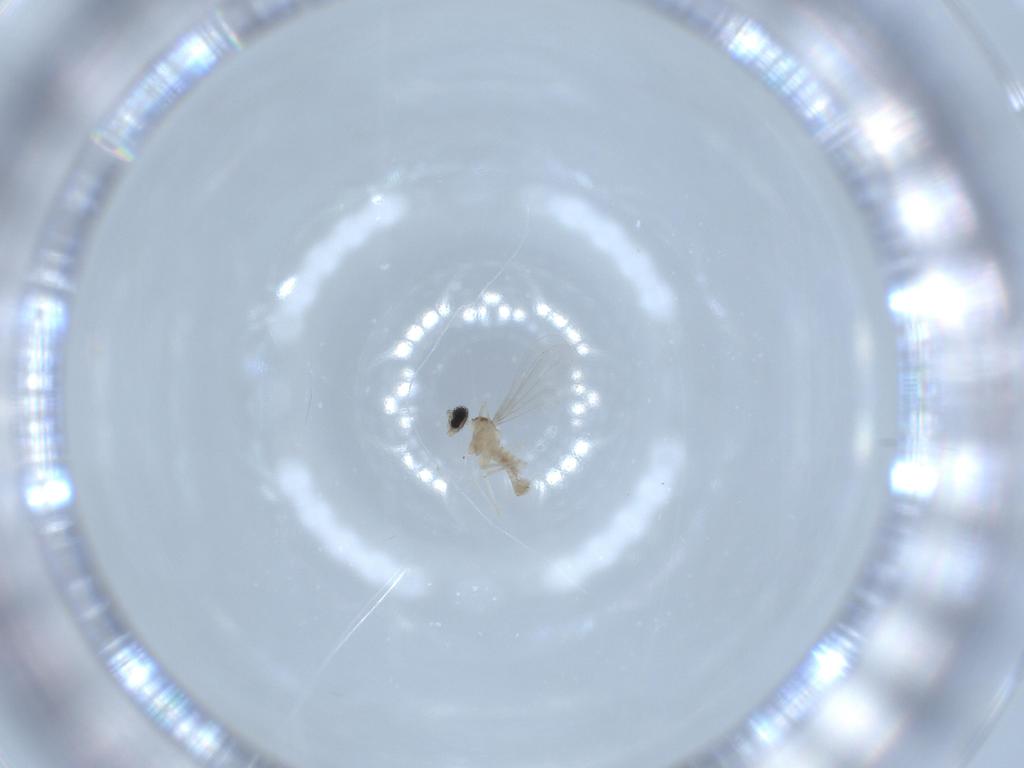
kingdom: Animalia
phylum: Arthropoda
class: Insecta
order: Diptera
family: Cecidomyiidae
